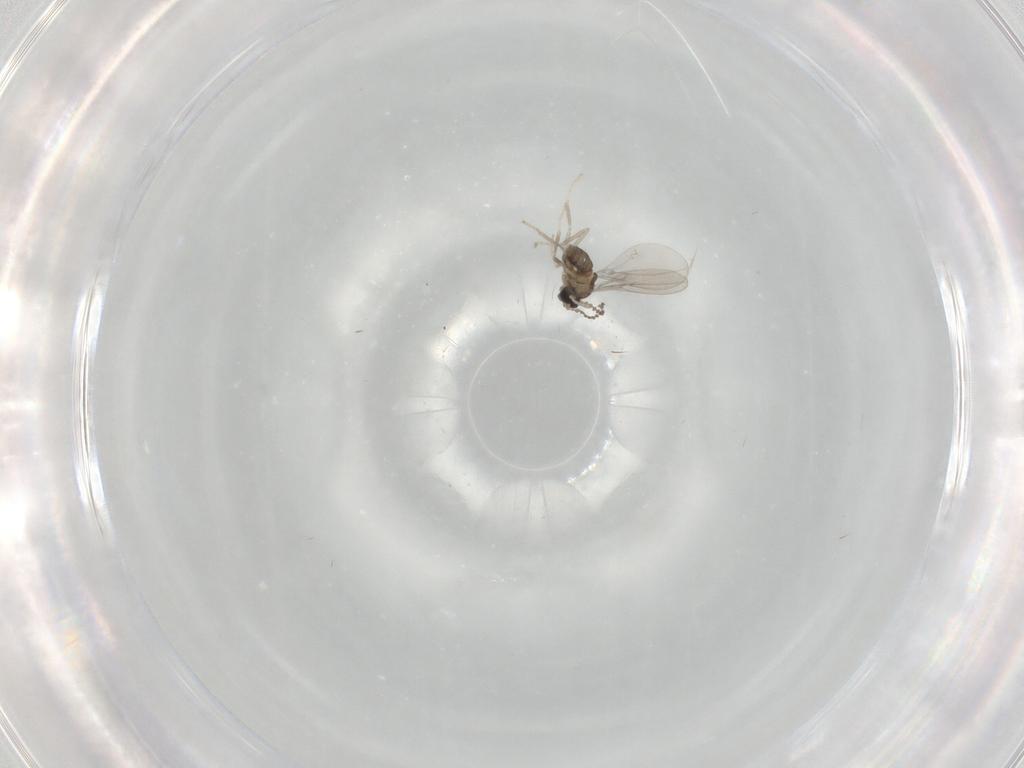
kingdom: Animalia
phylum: Arthropoda
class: Insecta
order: Diptera
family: Cecidomyiidae
